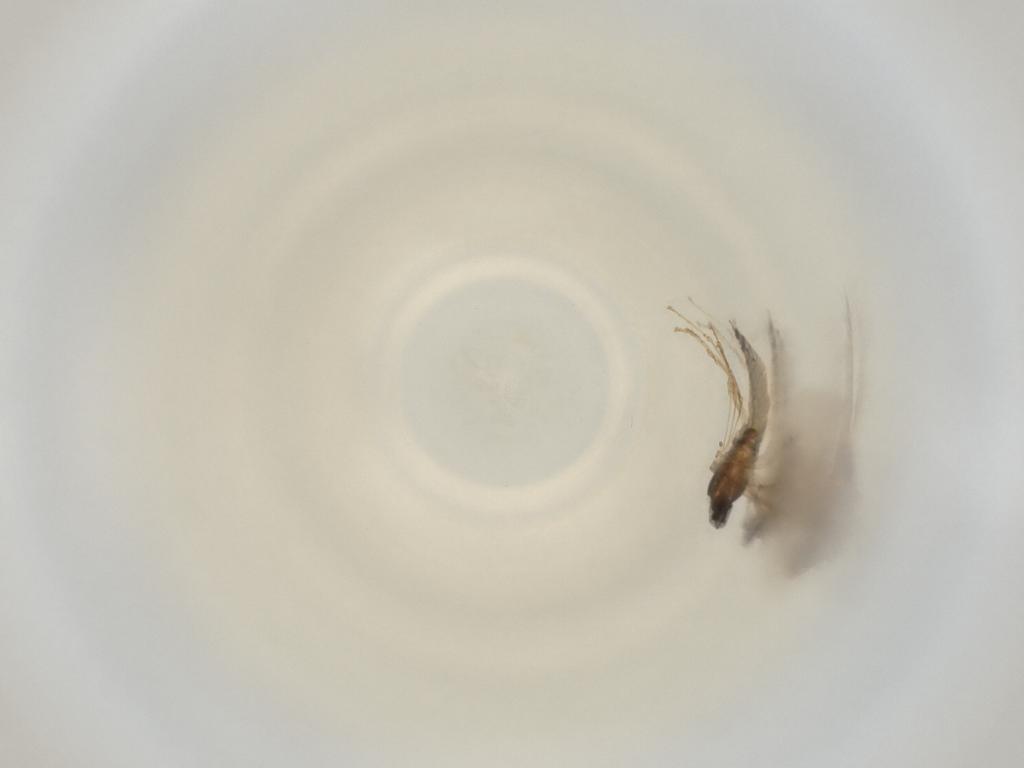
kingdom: Animalia
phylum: Arthropoda
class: Insecta
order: Diptera
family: Cecidomyiidae
